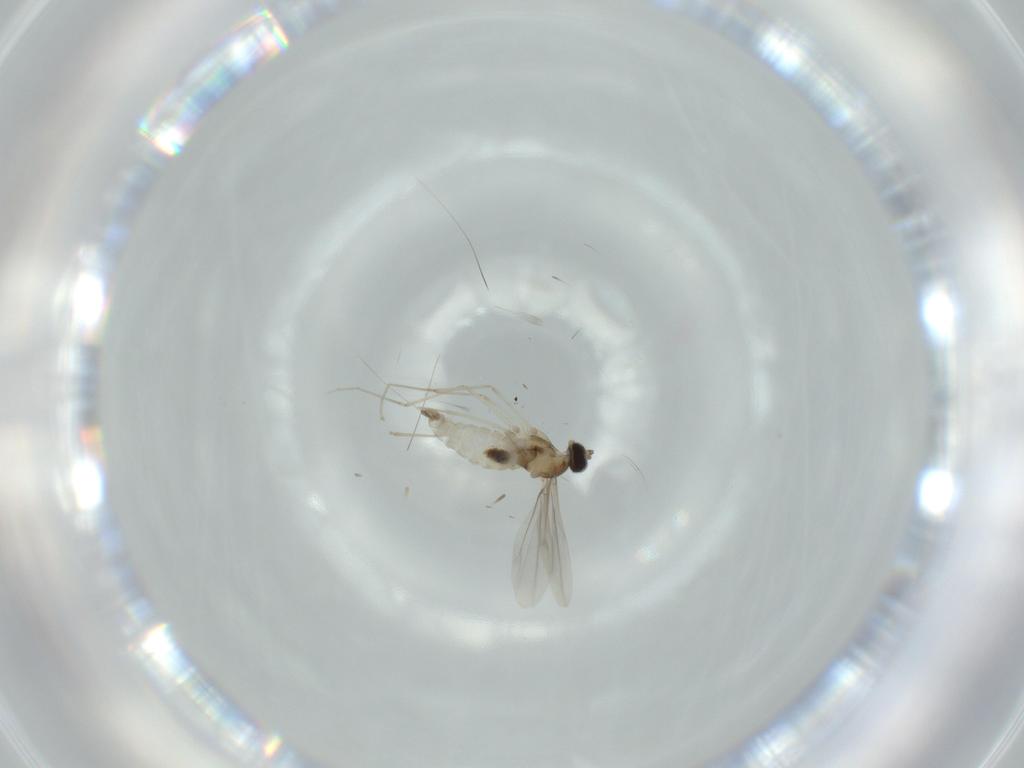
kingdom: Animalia
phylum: Arthropoda
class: Insecta
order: Diptera
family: Cecidomyiidae
